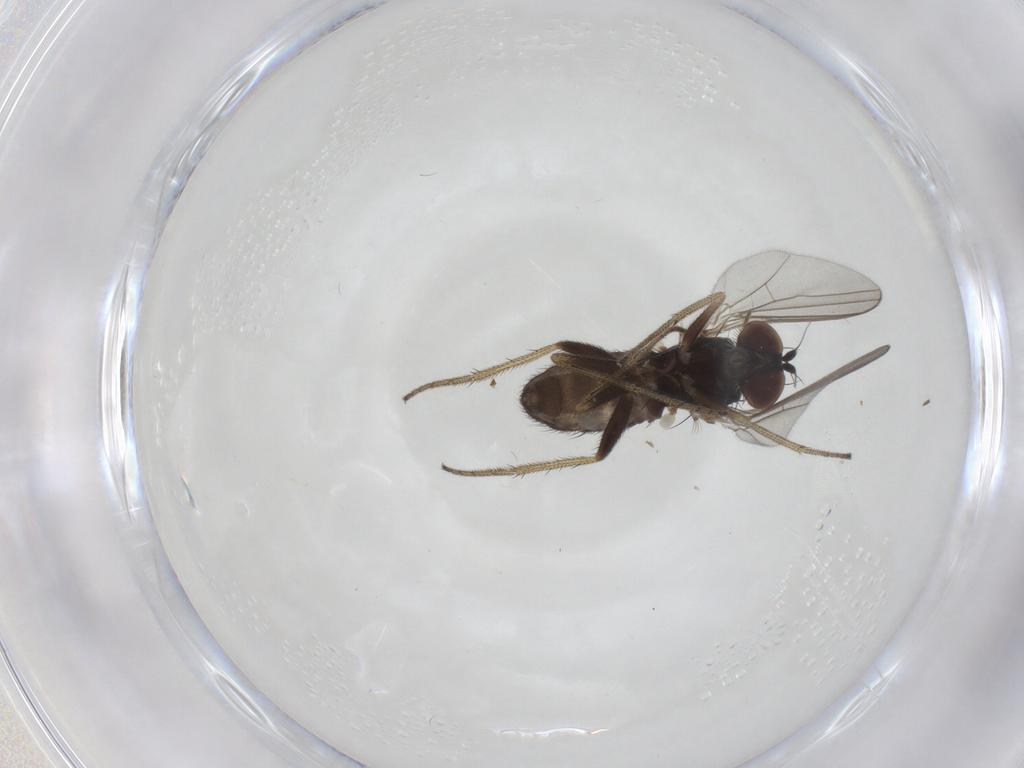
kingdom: Animalia
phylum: Arthropoda
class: Insecta
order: Diptera
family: Dolichopodidae
